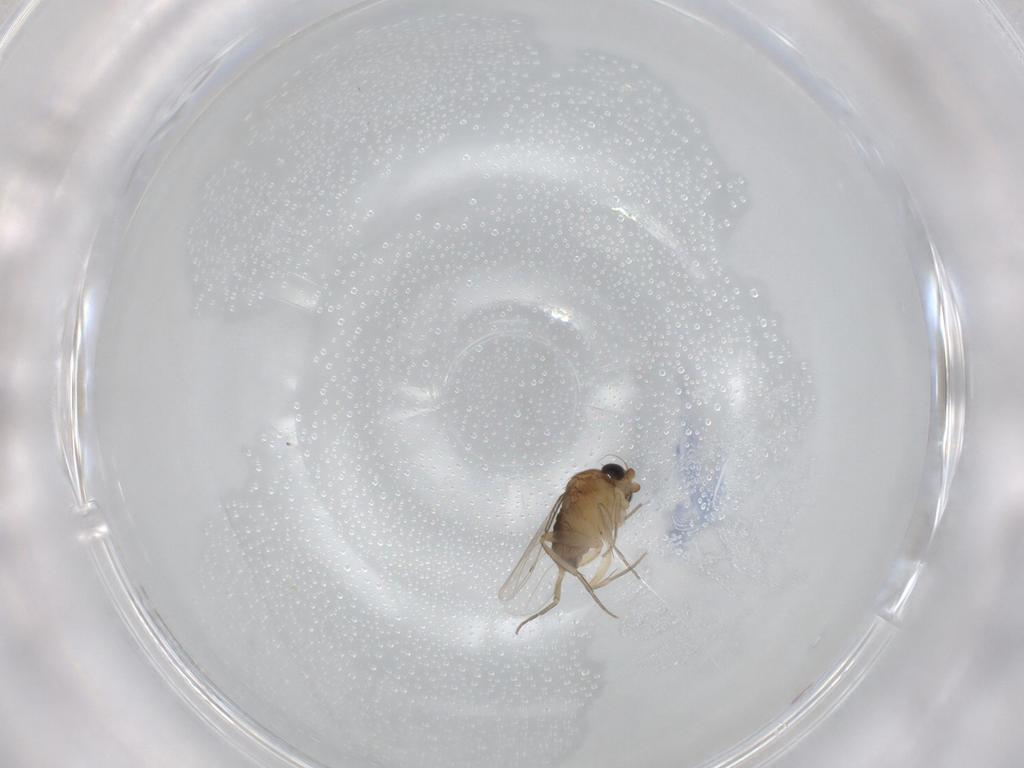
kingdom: Animalia
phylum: Arthropoda
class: Insecta
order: Diptera
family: Phoridae
